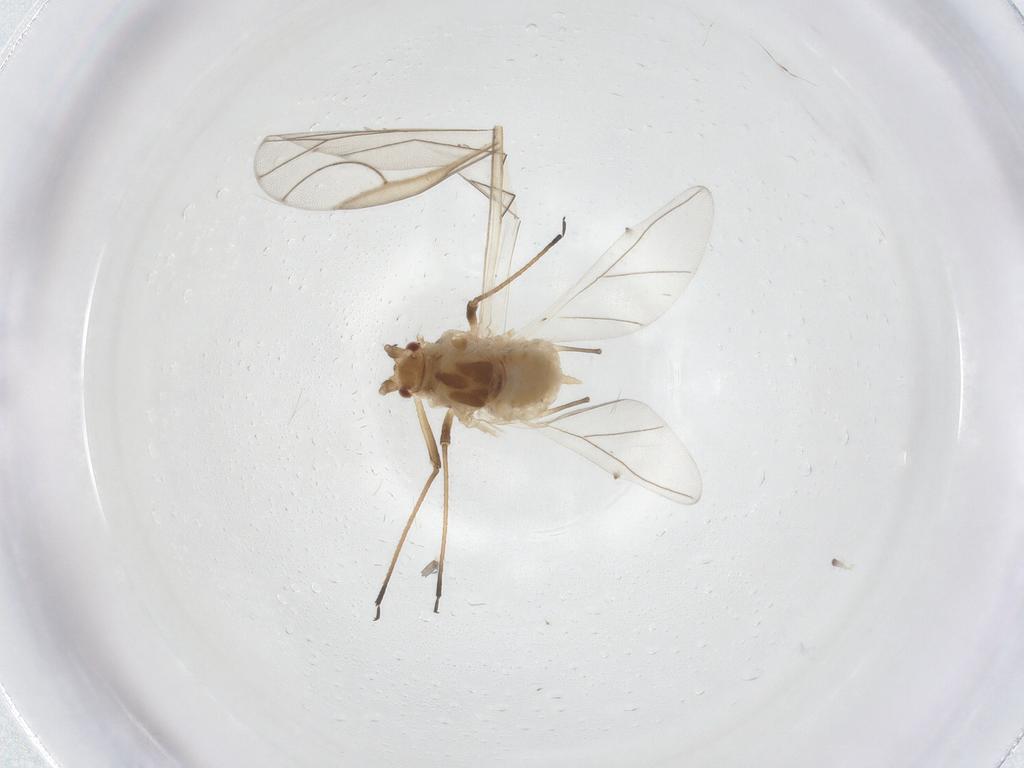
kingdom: Animalia
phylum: Arthropoda
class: Insecta
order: Hemiptera
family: Aphididae
